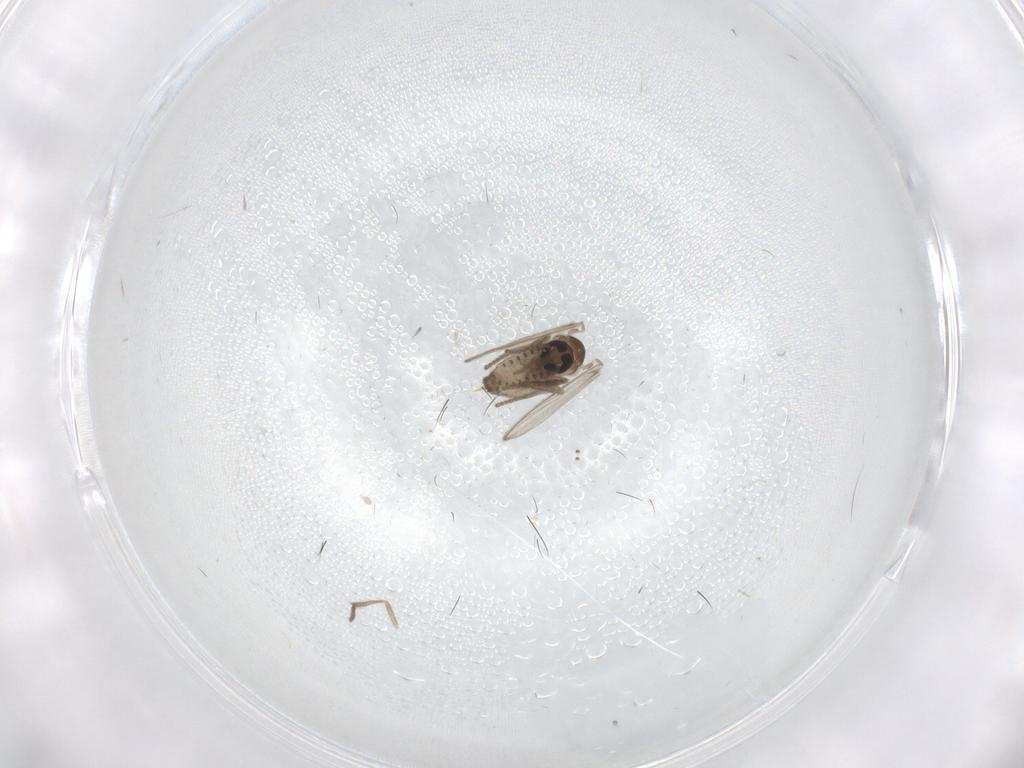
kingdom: Animalia
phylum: Arthropoda
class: Insecta
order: Diptera
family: Psychodidae
